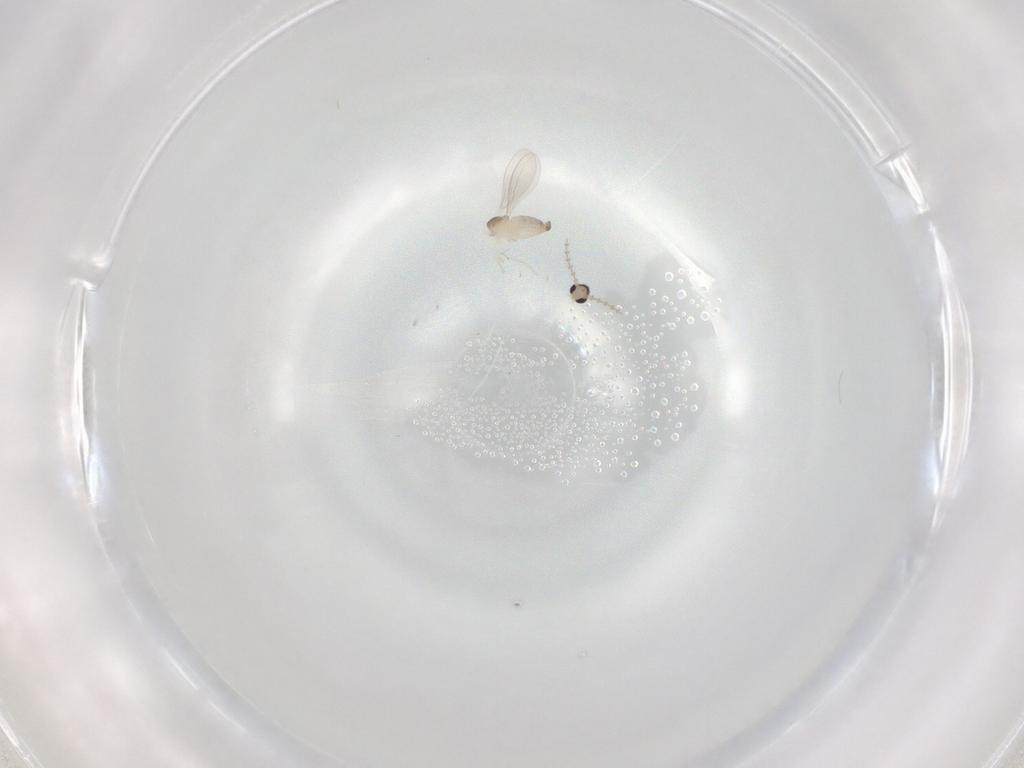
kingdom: Animalia
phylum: Arthropoda
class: Insecta
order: Diptera
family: Cecidomyiidae
